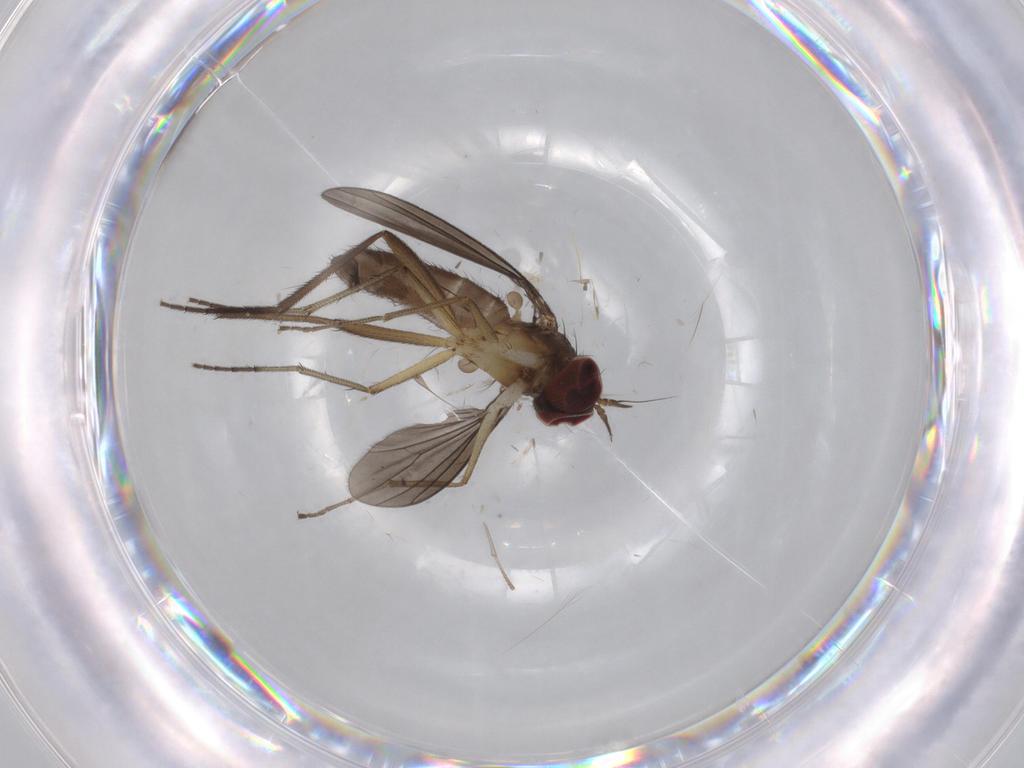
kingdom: Animalia
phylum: Arthropoda
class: Insecta
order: Diptera
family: Dolichopodidae
